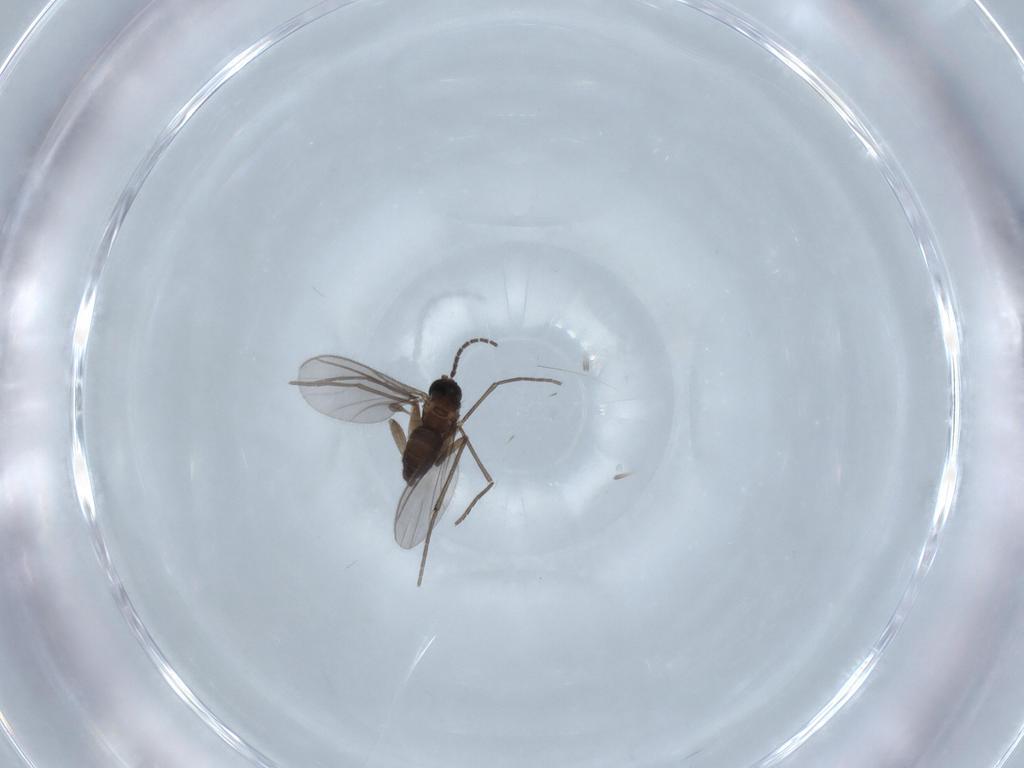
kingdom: Animalia
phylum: Arthropoda
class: Insecta
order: Diptera
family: Sciaridae
